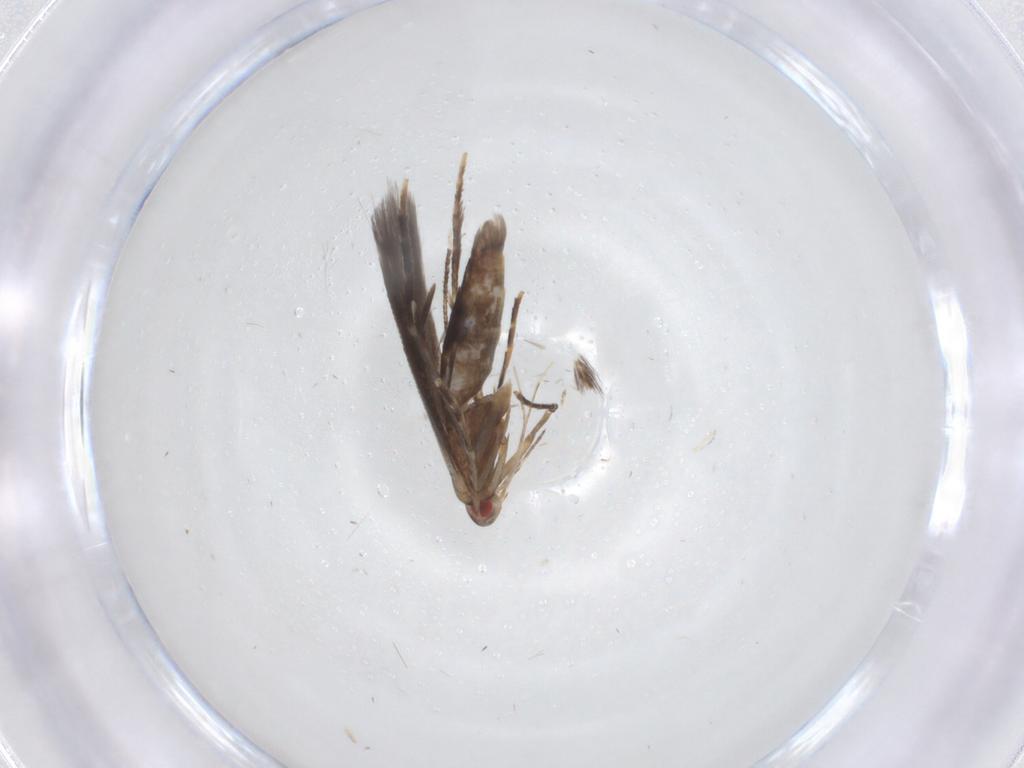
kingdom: Animalia
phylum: Arthropoda
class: Insecta
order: Lepidoptera
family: Cosmopterigidae
